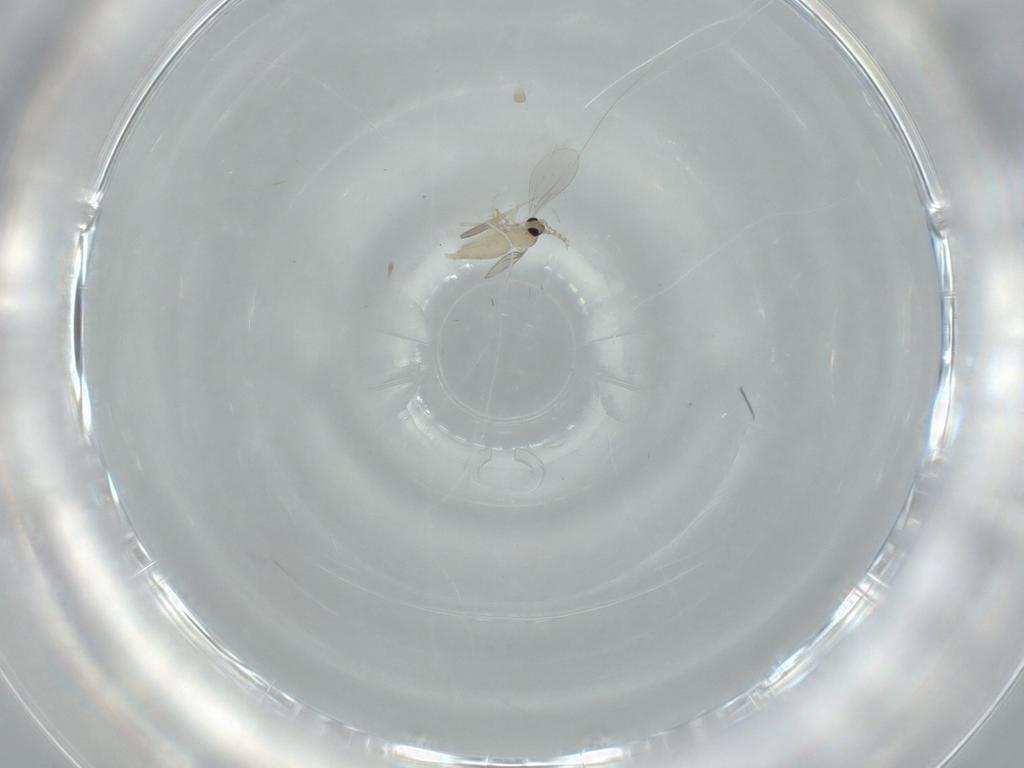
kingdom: Animalia
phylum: Arthropoda
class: Insecta
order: Diptera
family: Cecidomyiidae
